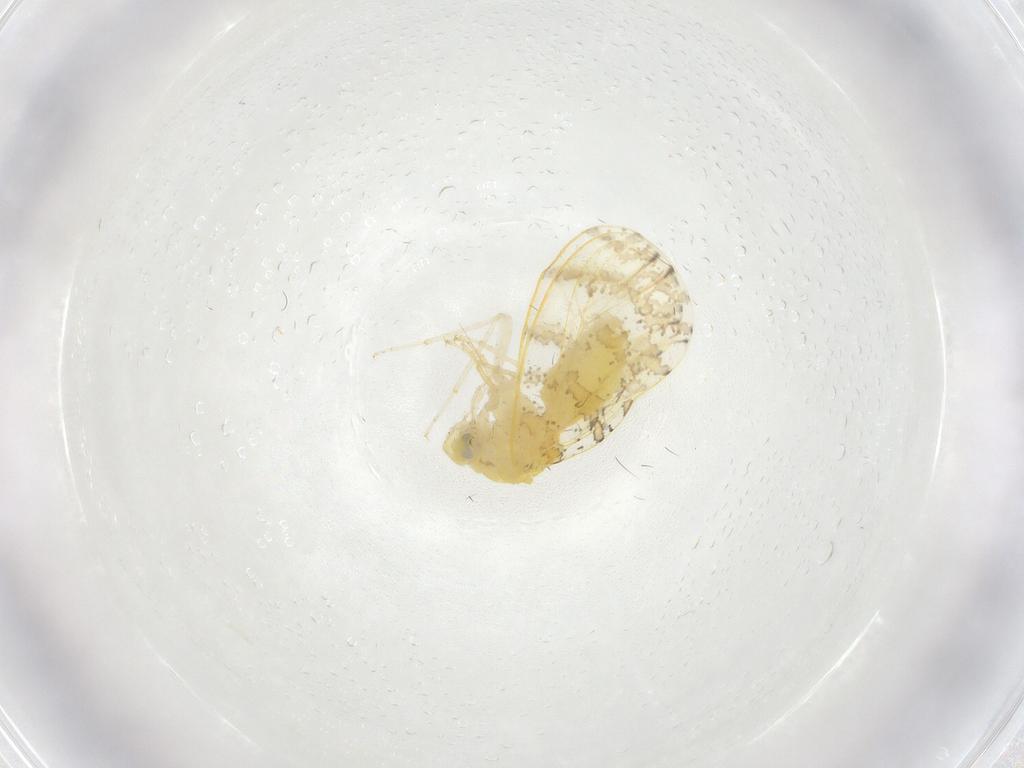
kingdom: Animalia
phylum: Arthropoda
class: Insecta
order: Hemiptera
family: Aleyrodidae
